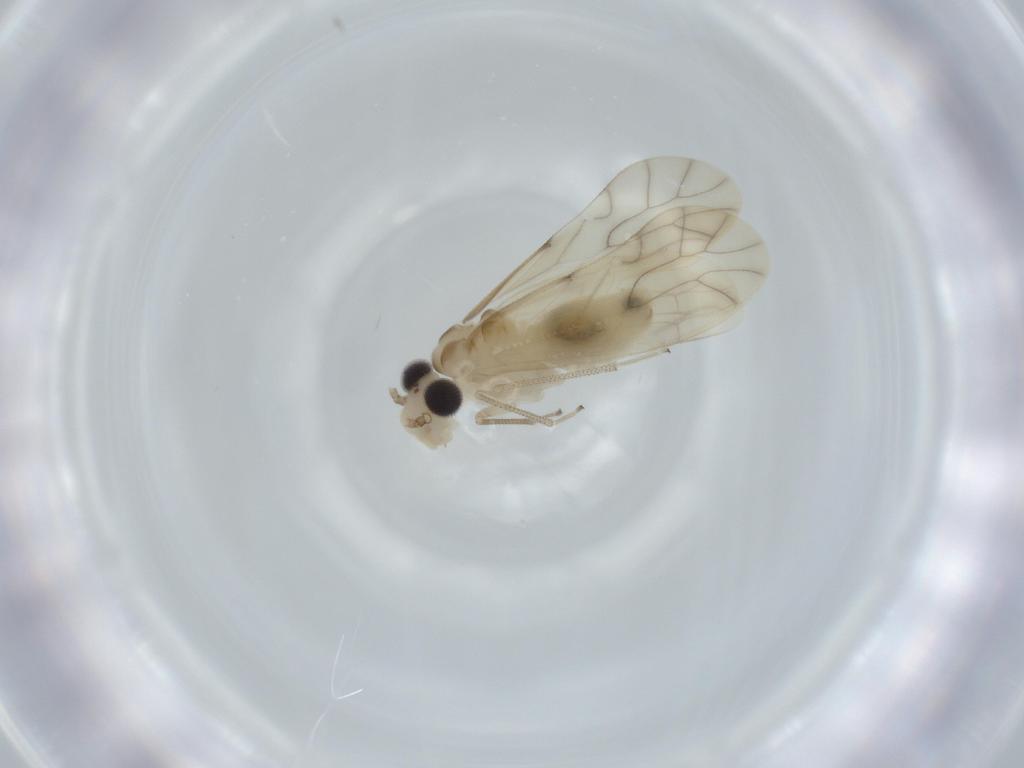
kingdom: Animalia
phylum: Arthropoda
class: Insecta
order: Psocodea
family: Caeciliusidae
